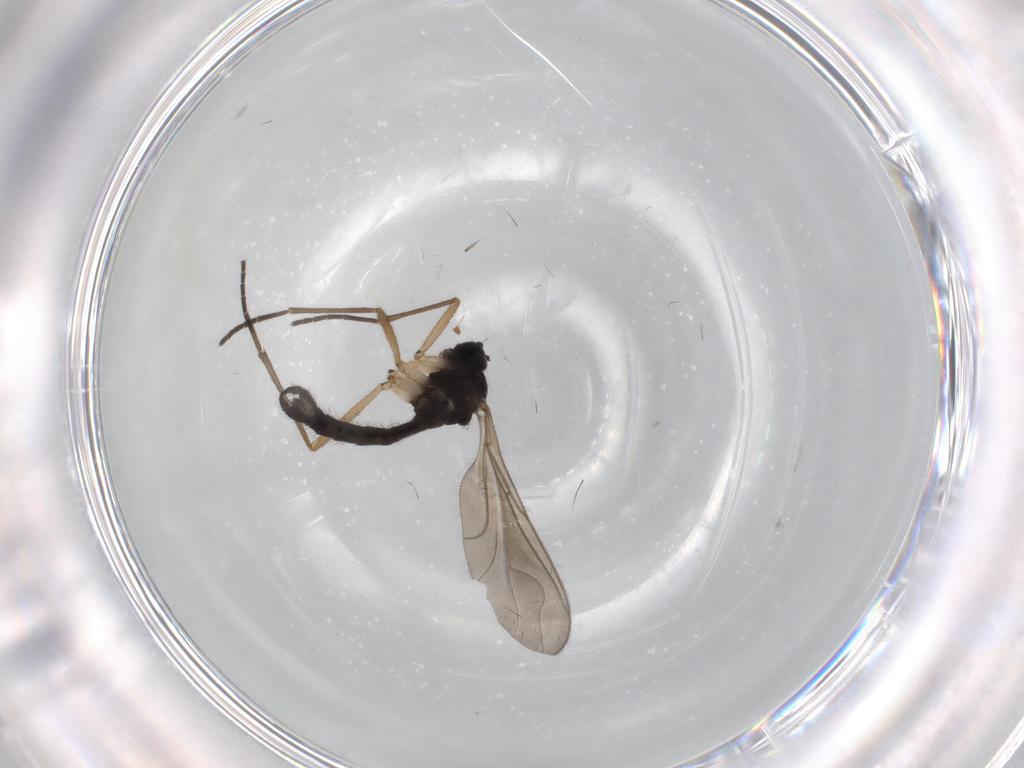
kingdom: Animalia
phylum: Arthropoda
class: Insecta
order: Diptera
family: Sciaridae
